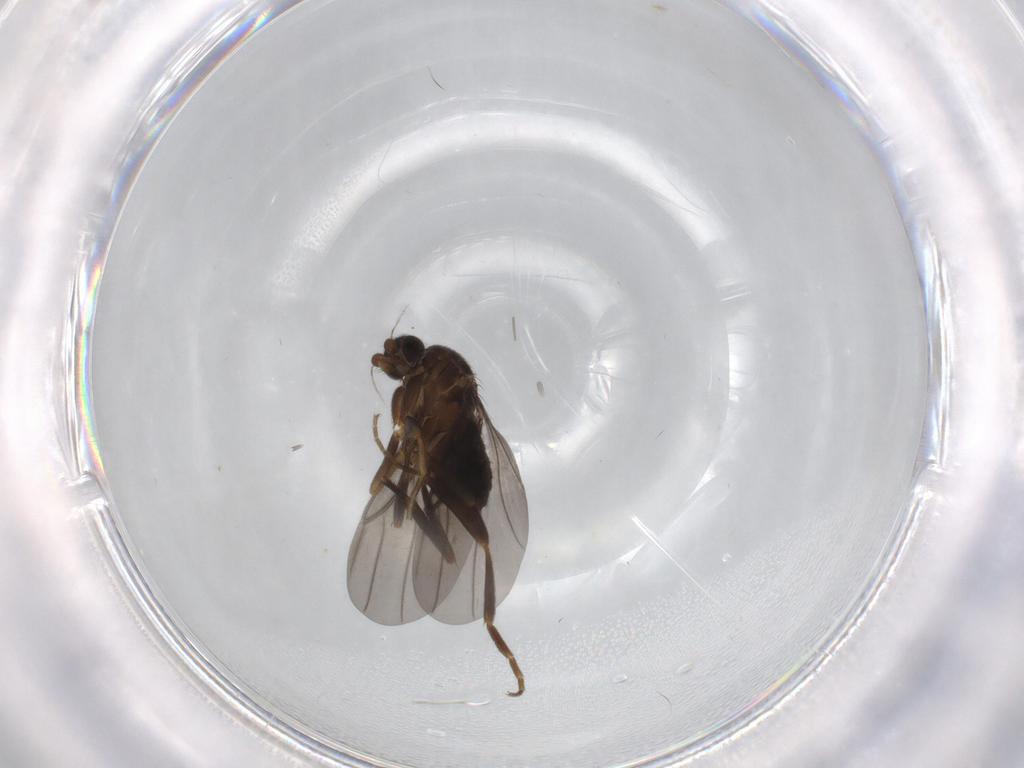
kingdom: Animalia
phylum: Arthropoda
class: Insecta
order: Diptera
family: Phoridae
